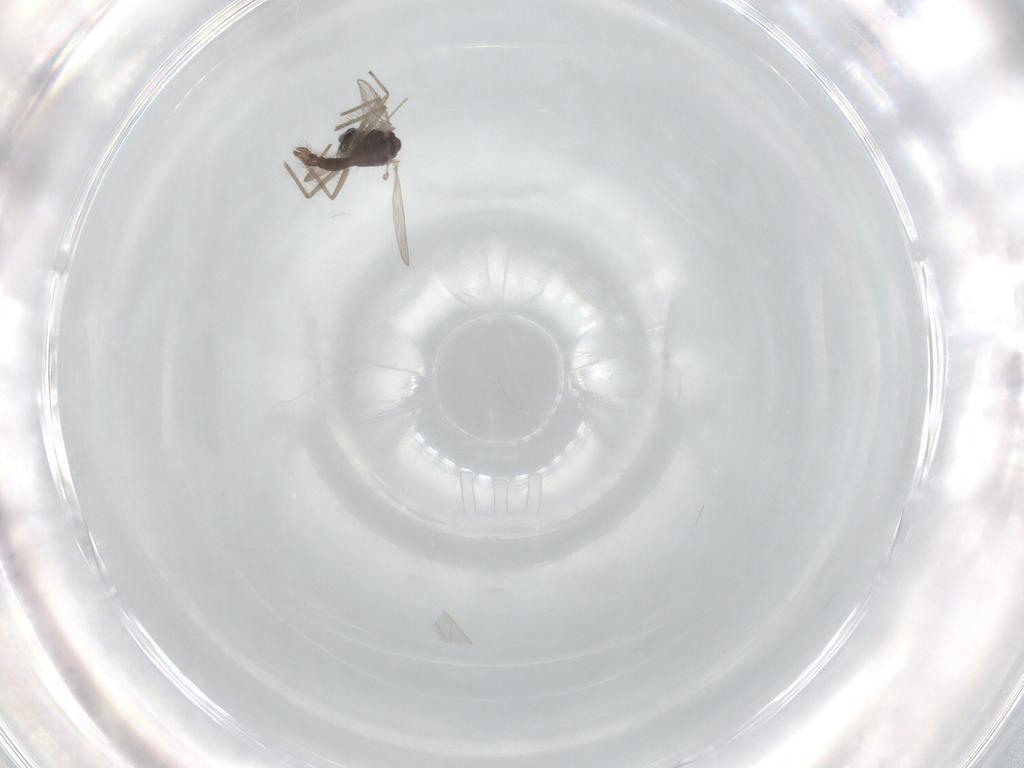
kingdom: Animalia
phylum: Arthropoda
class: Insecta
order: Diptera
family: Chironomidae
